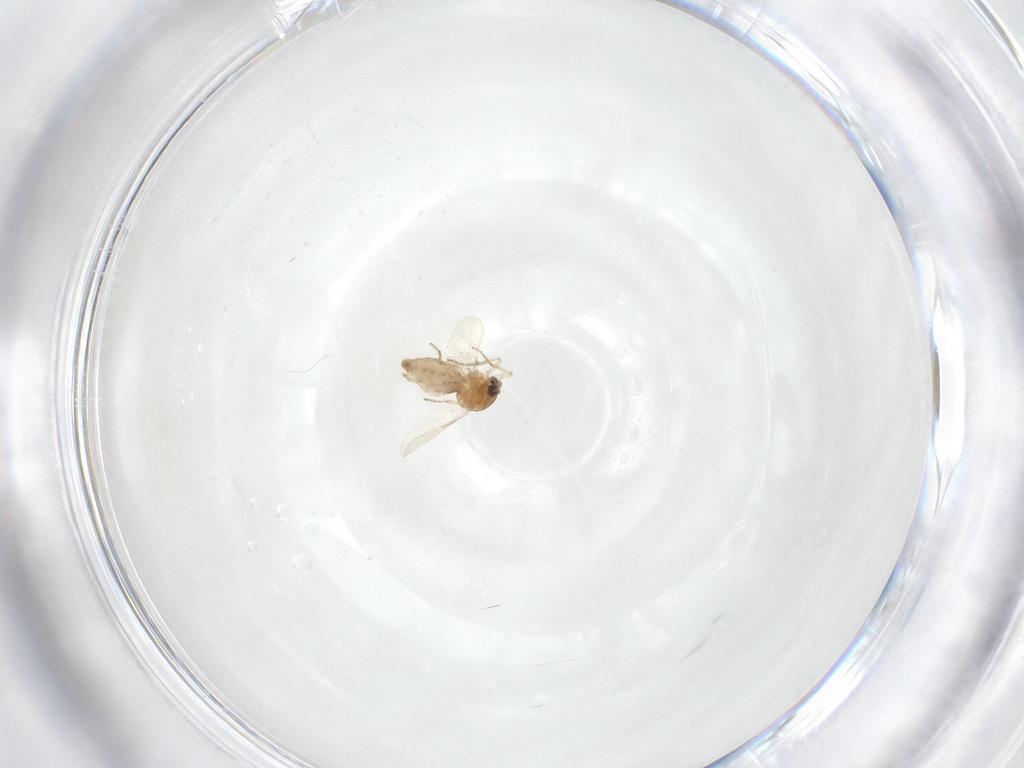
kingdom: Animalia
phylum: Arthropoda
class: Insecta
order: Diptera
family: Ceratopogonidae
